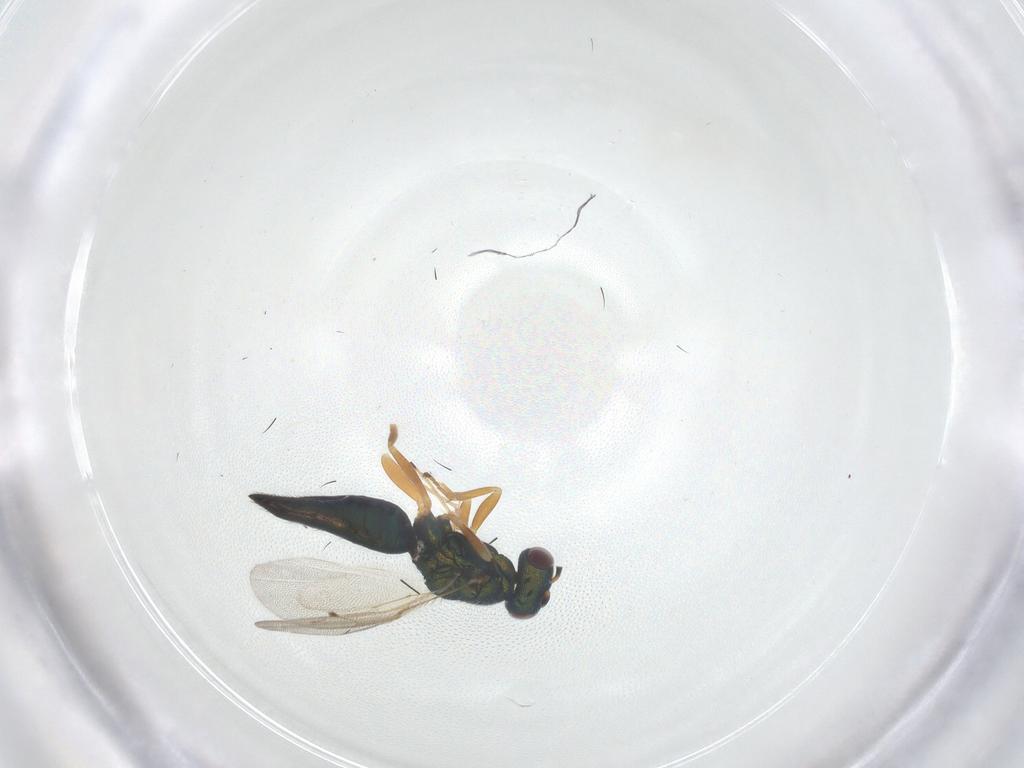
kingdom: Animalia
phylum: Arthropoda
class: Insecta
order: Hymenoptera
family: Pteromalidae
